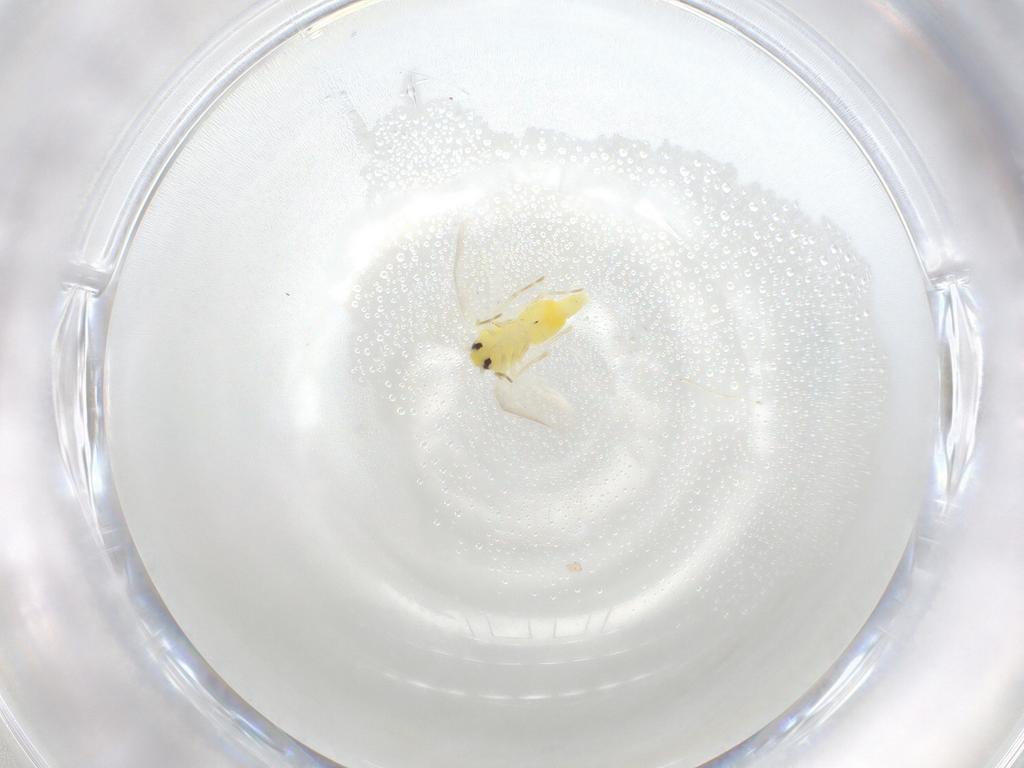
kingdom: Animalia
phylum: Arthropoda
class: Insecta
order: Hemiptera
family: Aleyrodidae
